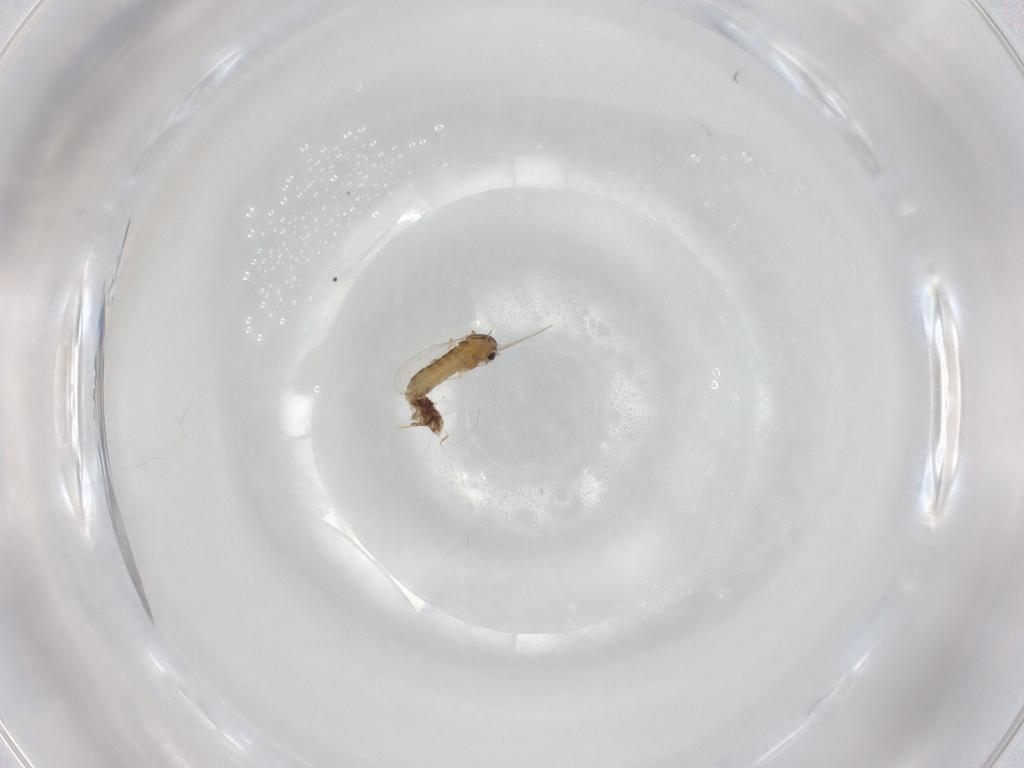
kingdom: Animalia
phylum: Arthropoda
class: Insecta
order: Diptera
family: Chironomidae
